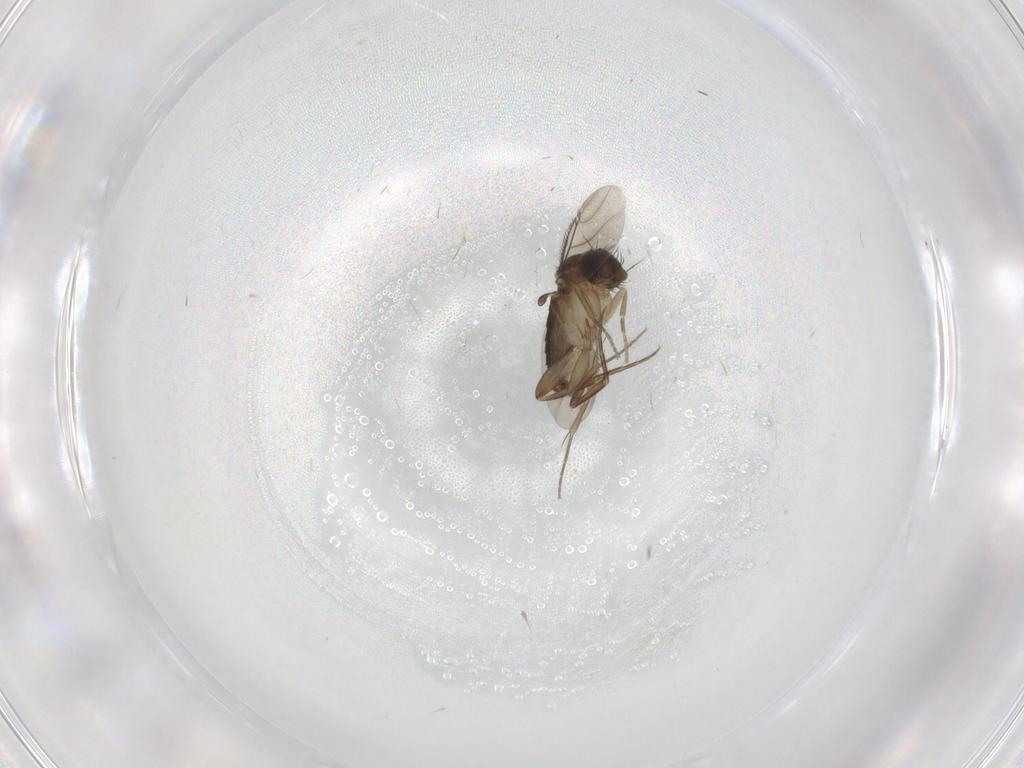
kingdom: Animalia
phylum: Arthropoda
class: Insecta
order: Diptera
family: Phoridae
